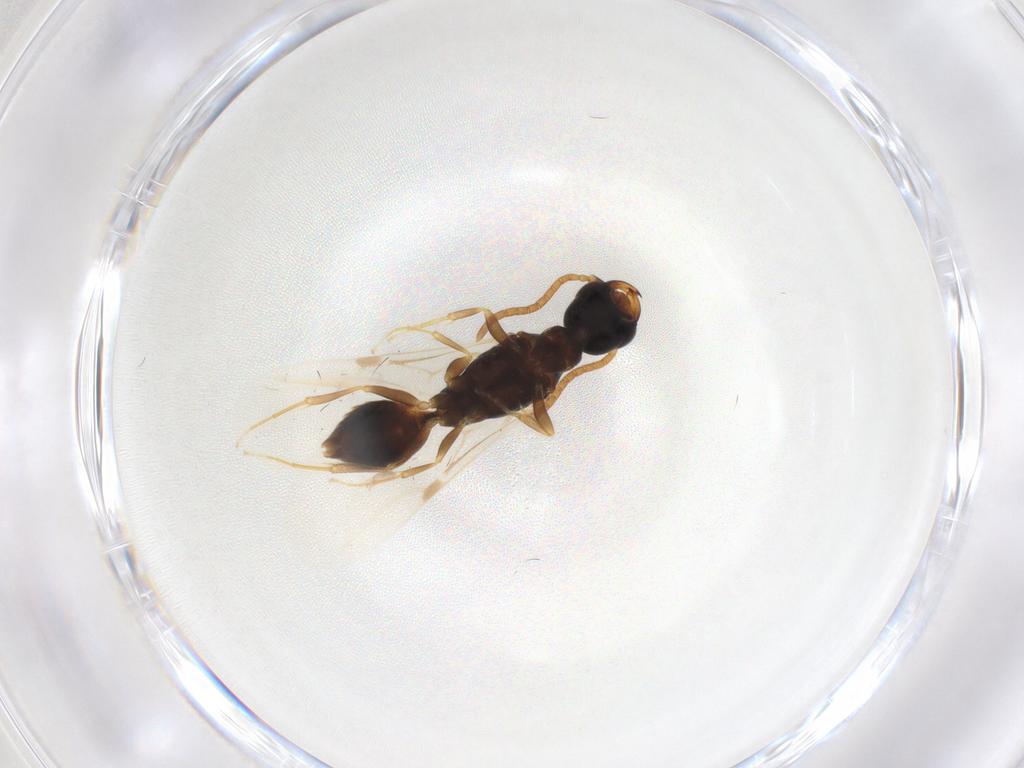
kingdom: Animalia
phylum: Arthropoda
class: Insecta
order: Hymenoptera
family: Bethylidae
